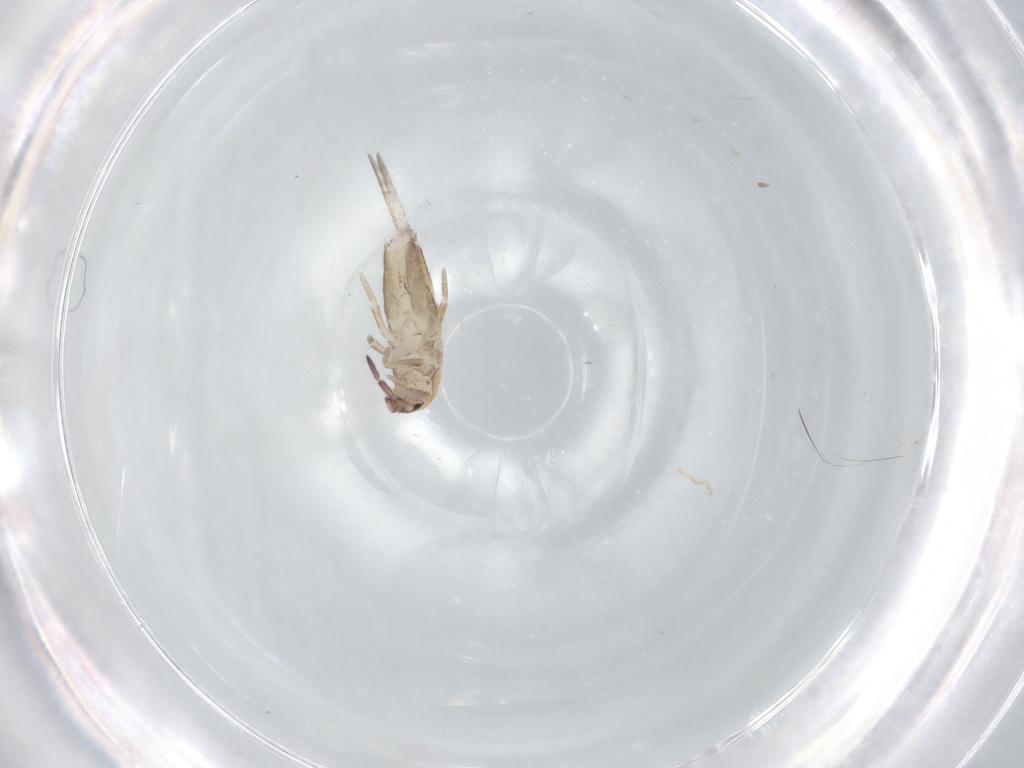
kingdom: Animalia
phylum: Arthropoda
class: Collembola
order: Entomobryomorpha
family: Entomobryidae
